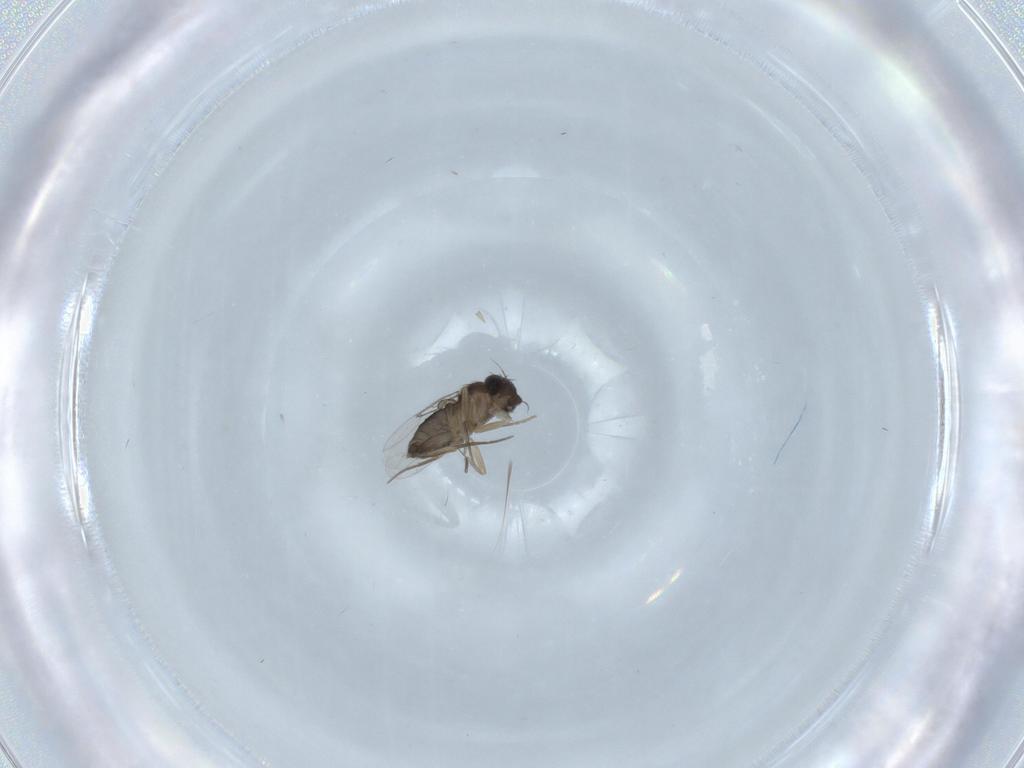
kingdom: Animalia
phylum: Arthropoda
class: Insecta
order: Diptera
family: Phoridae
